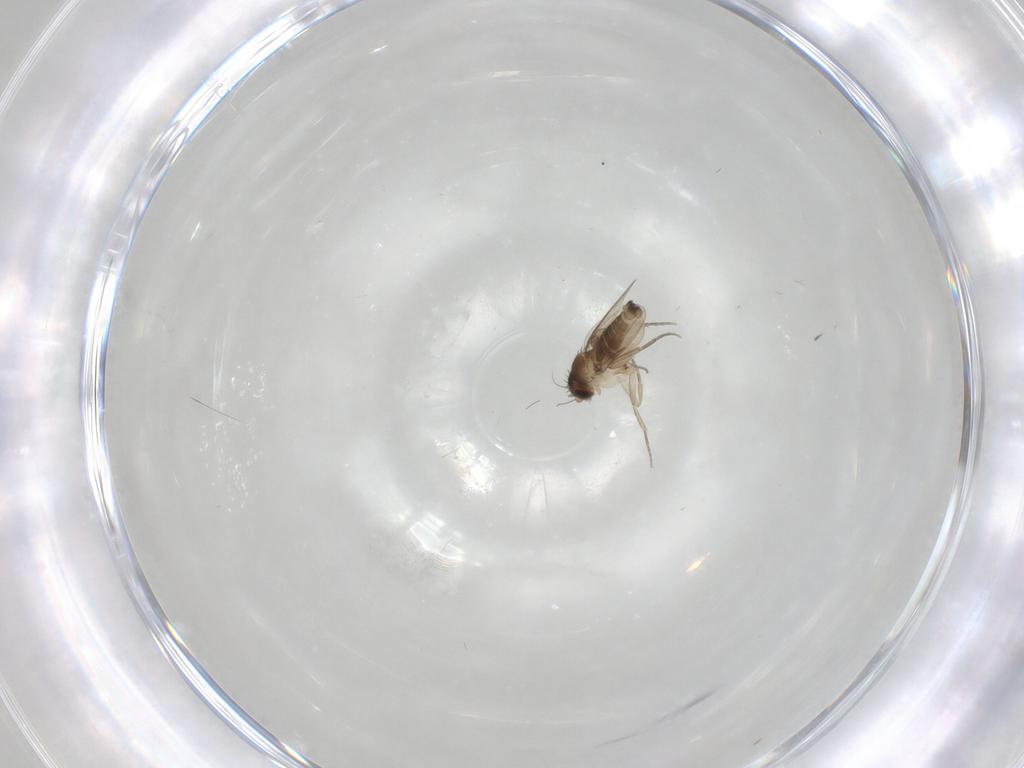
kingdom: Animalia
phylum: Arthropoda
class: Insecta
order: Diptera
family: Phoridae
